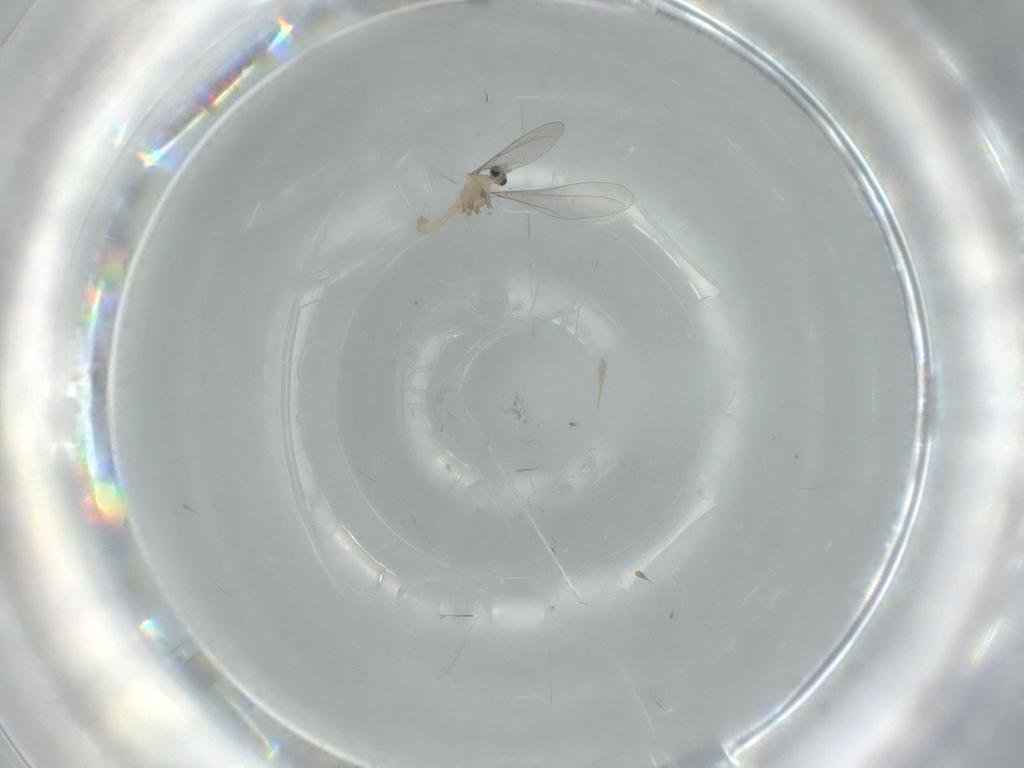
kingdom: Animalia
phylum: Arthropoda
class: Insecta
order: Diptera
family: Cecidomyiidae
